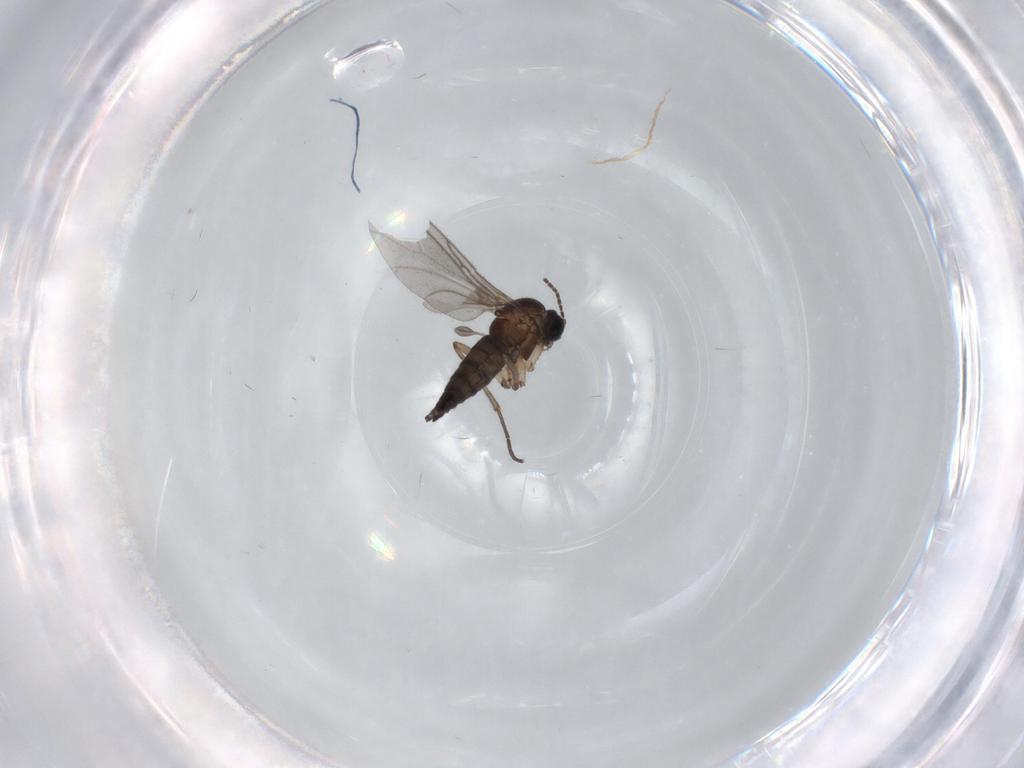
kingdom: Animalia
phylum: Arthropoda
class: Insecta
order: Diptera
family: Sciaridae
